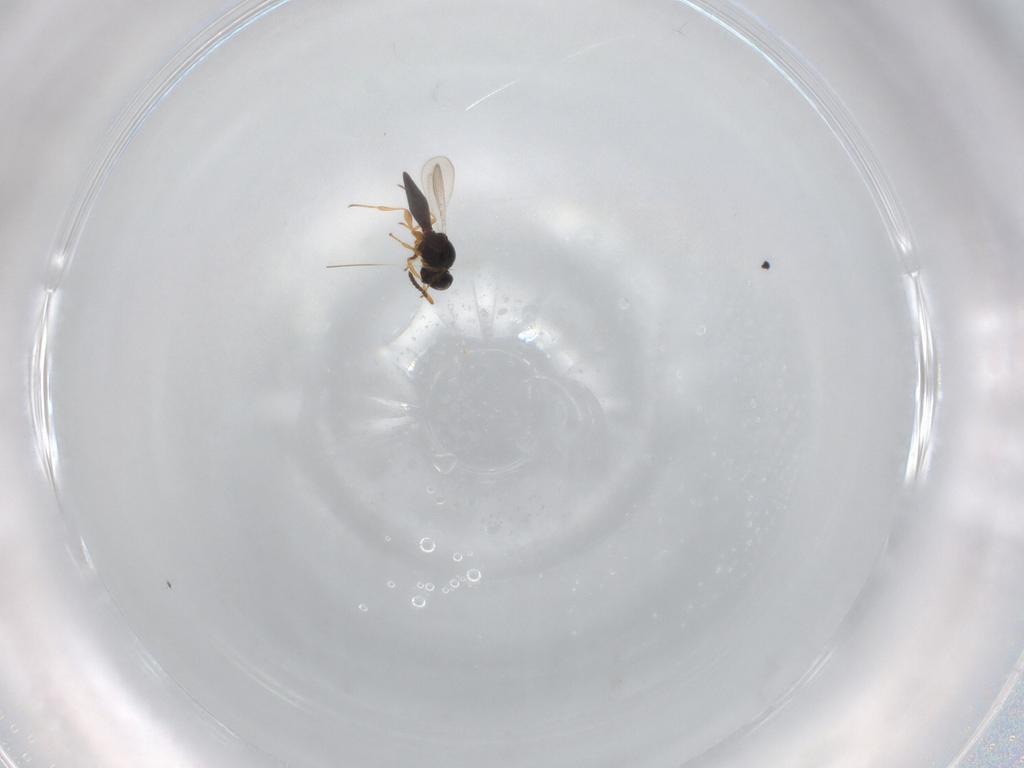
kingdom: Animalia
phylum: Arthropoda
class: Insecta
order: Hymenoptera
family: Platygastridae
